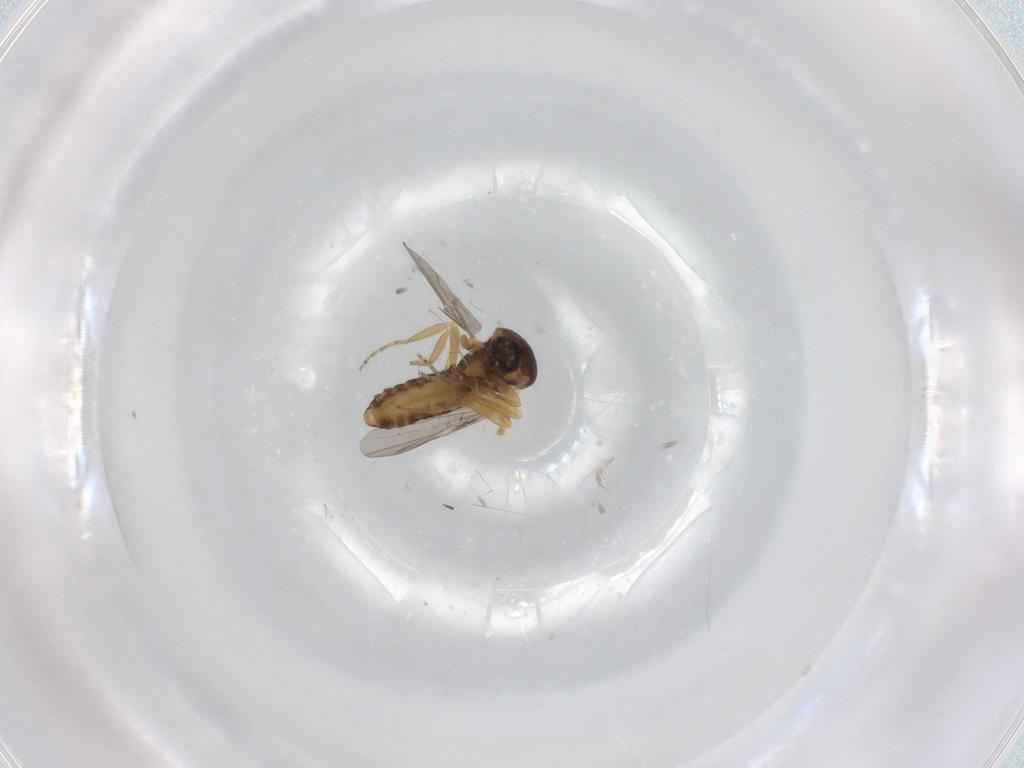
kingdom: Animalia
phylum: Arthropoda
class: Insecta
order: Diptera
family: Ceratopogonidae
